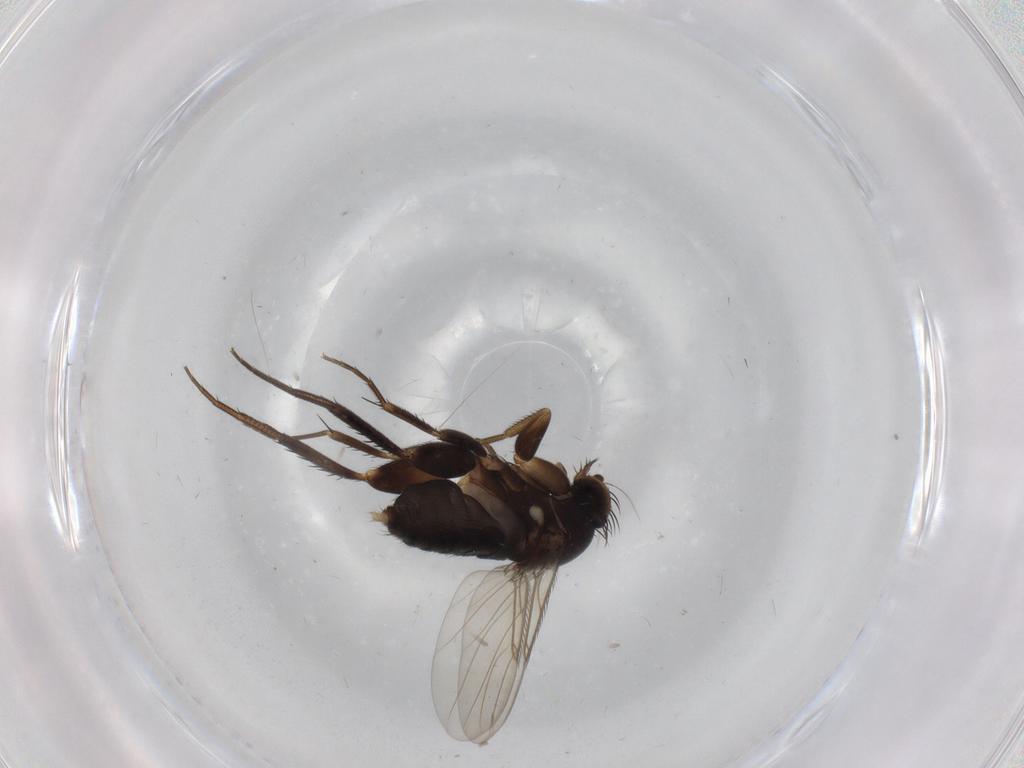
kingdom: Animalia
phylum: Arthropoda
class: Insecta
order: Diptera
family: Phoridae
